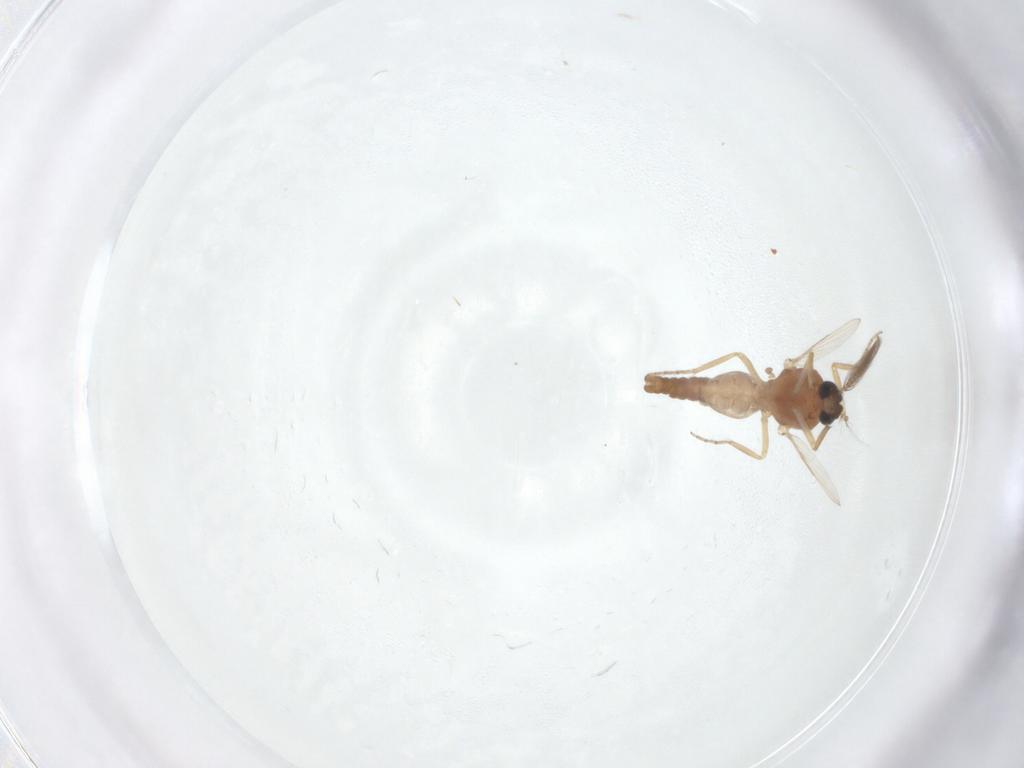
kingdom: Animalia
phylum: Arthropoda
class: Insecta
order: Diptera
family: Ceratopogonidae
